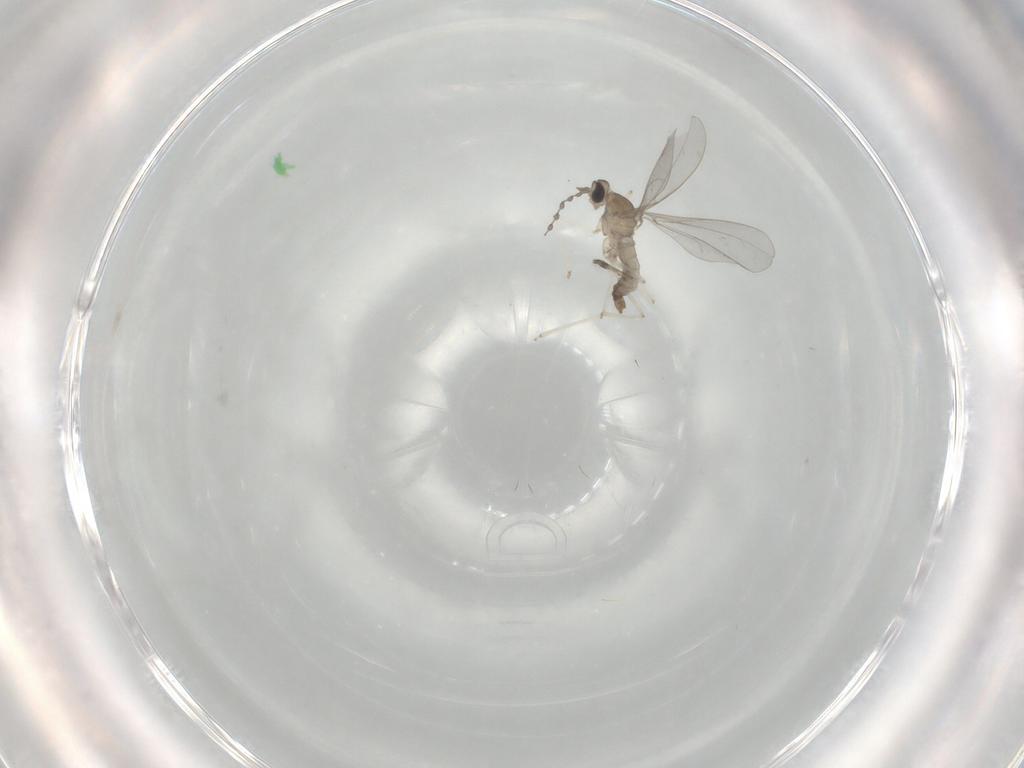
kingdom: Animalia
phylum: Arthropoda
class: Insecta
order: Diptera
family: Cecidomyiidae
